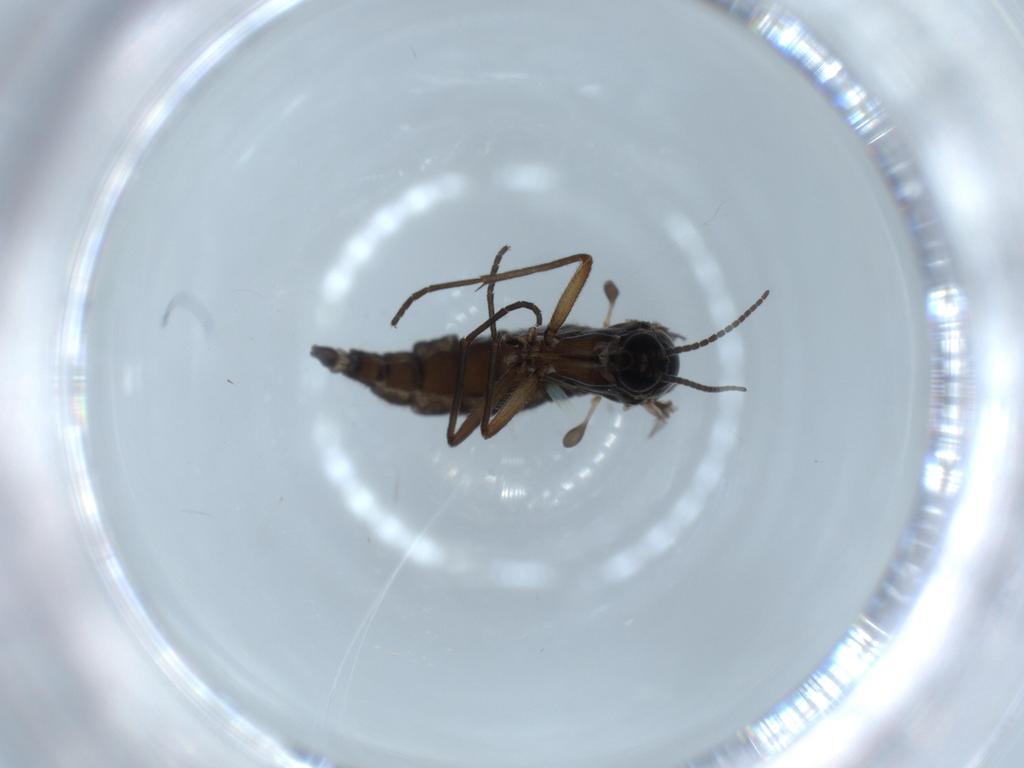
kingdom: Animalia
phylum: Arthropoda
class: Insecta
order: Diptera
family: Sciaridae
